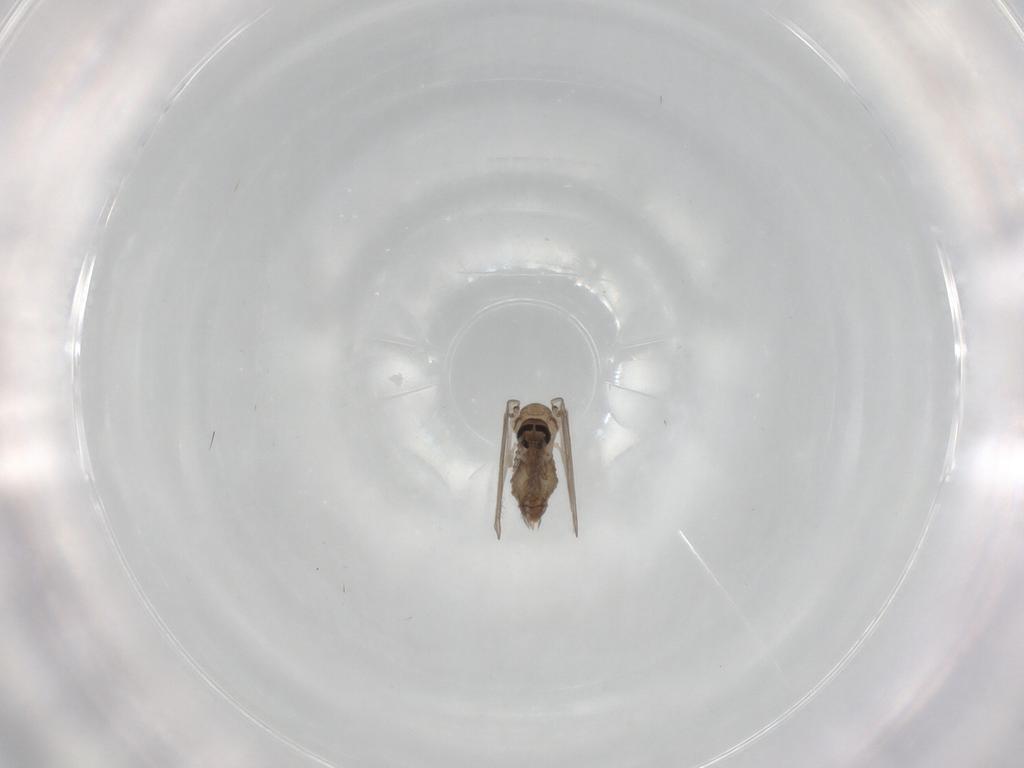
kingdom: Animalia
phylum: Arthropoda
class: Insecta
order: Diptera
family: Psychodidae
